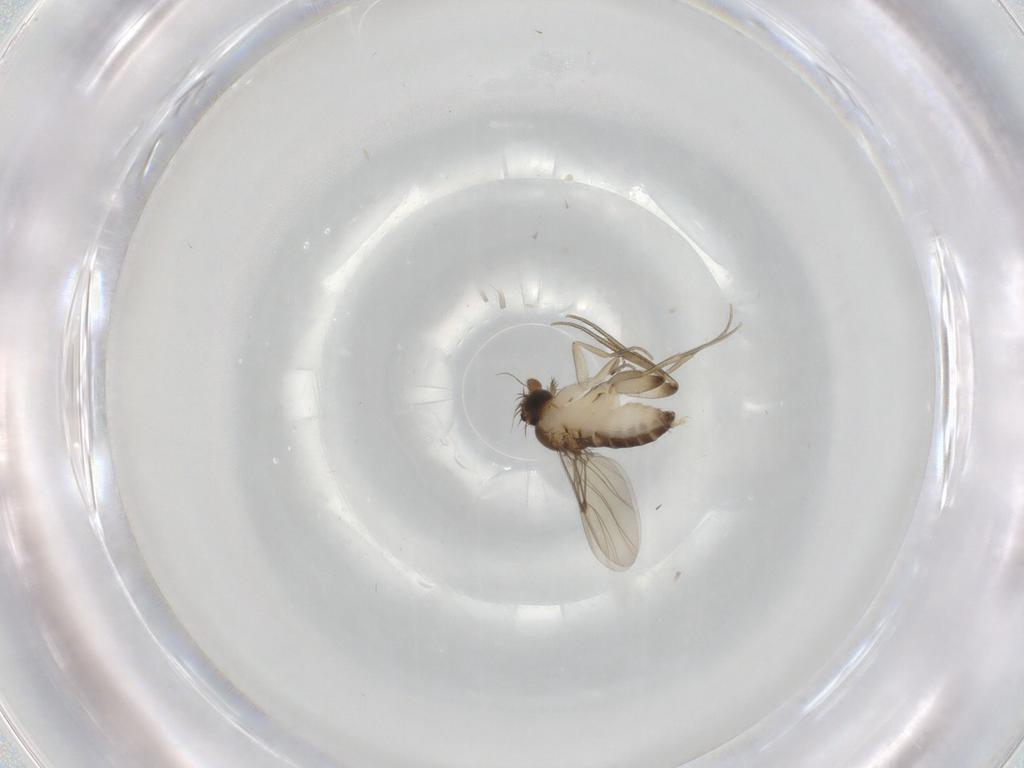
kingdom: Animalia
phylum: Arthropoda
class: Insecta
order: Diptera
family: Phoridae
